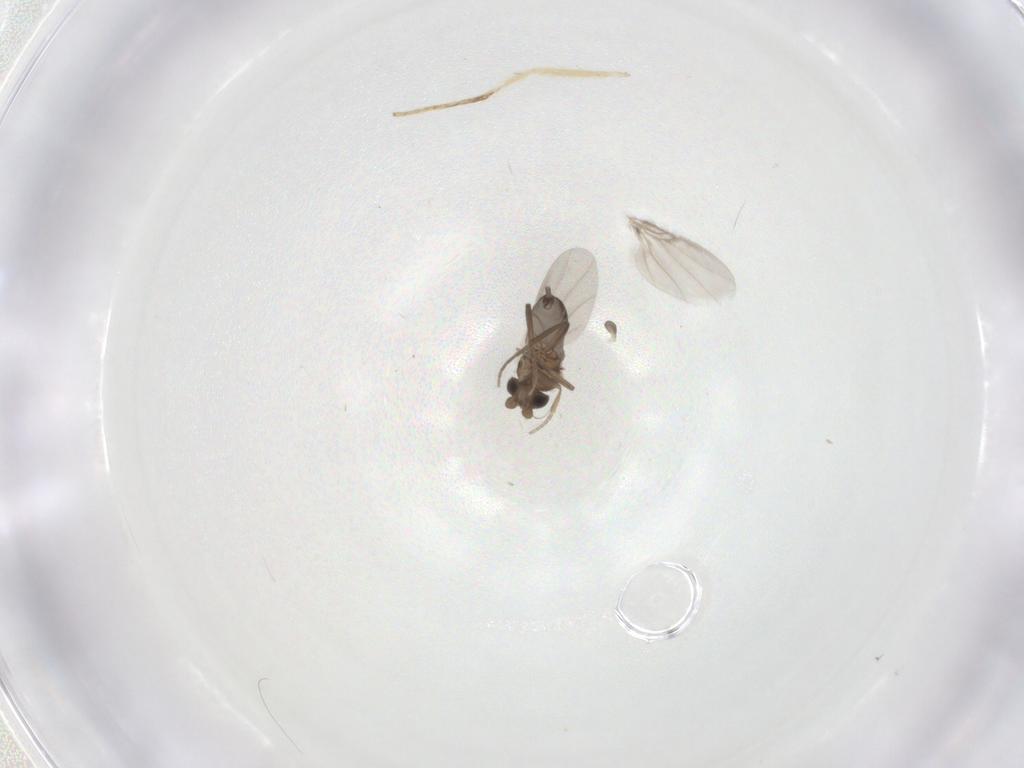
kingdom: Animalia
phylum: Arthropoda
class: Insecta
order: Diptera
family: Phoridae
